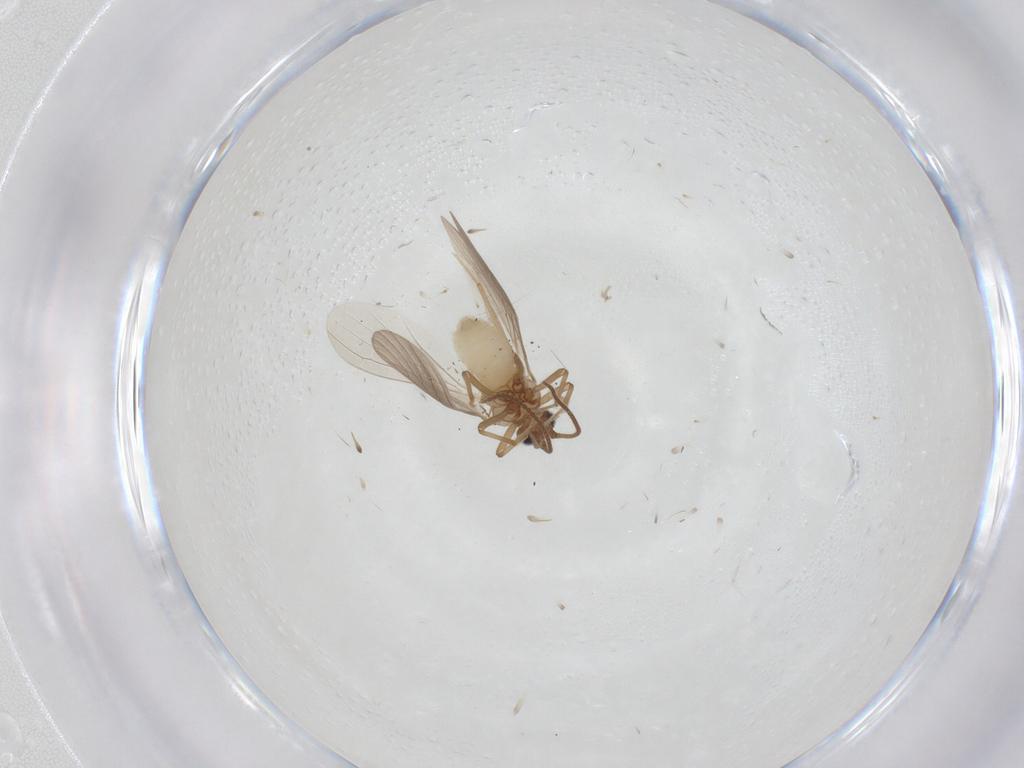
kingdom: Animalia
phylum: Arthropoda
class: Insecta
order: Neuroptera
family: Coniopterygidae
